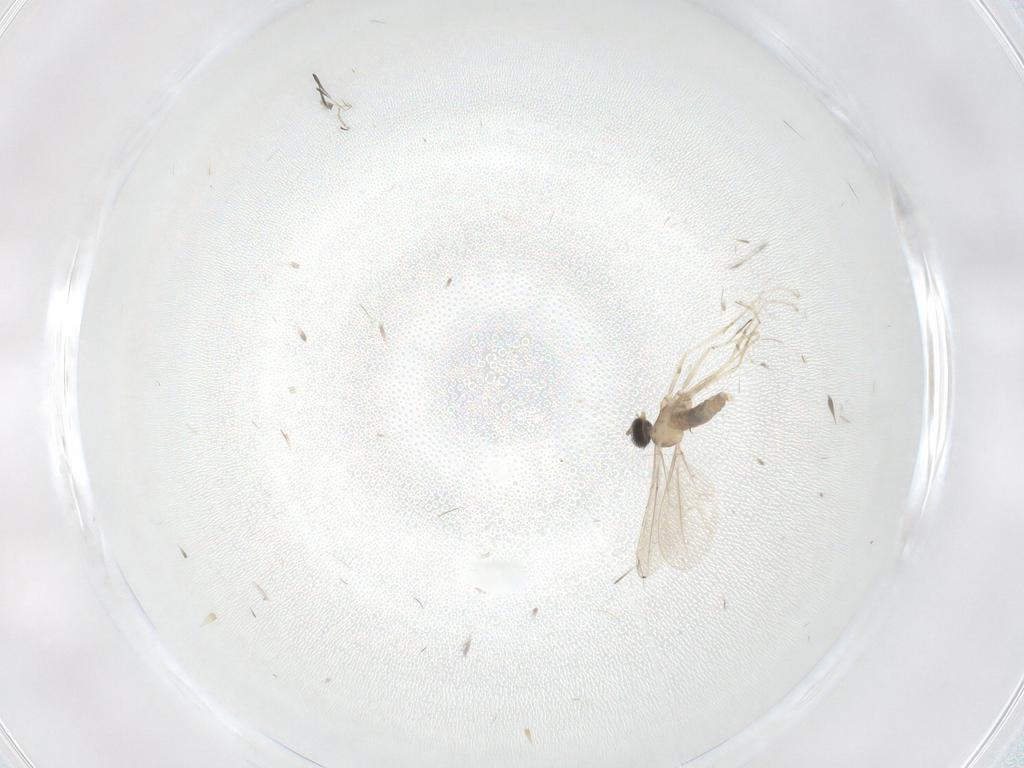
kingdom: Animalia
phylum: Arthropoda
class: Insecta
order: Diptera
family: Cecidomyiidae
